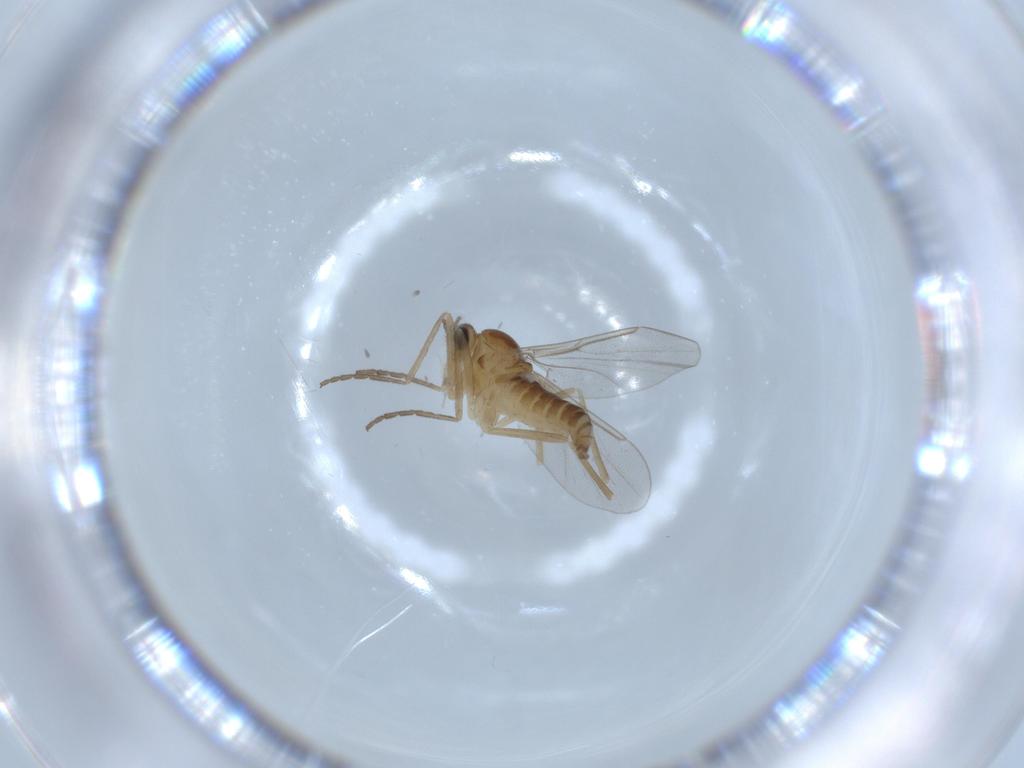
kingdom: Animalia
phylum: Arthropoda
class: Insecta
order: Diptera
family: Cecidomyiidae
